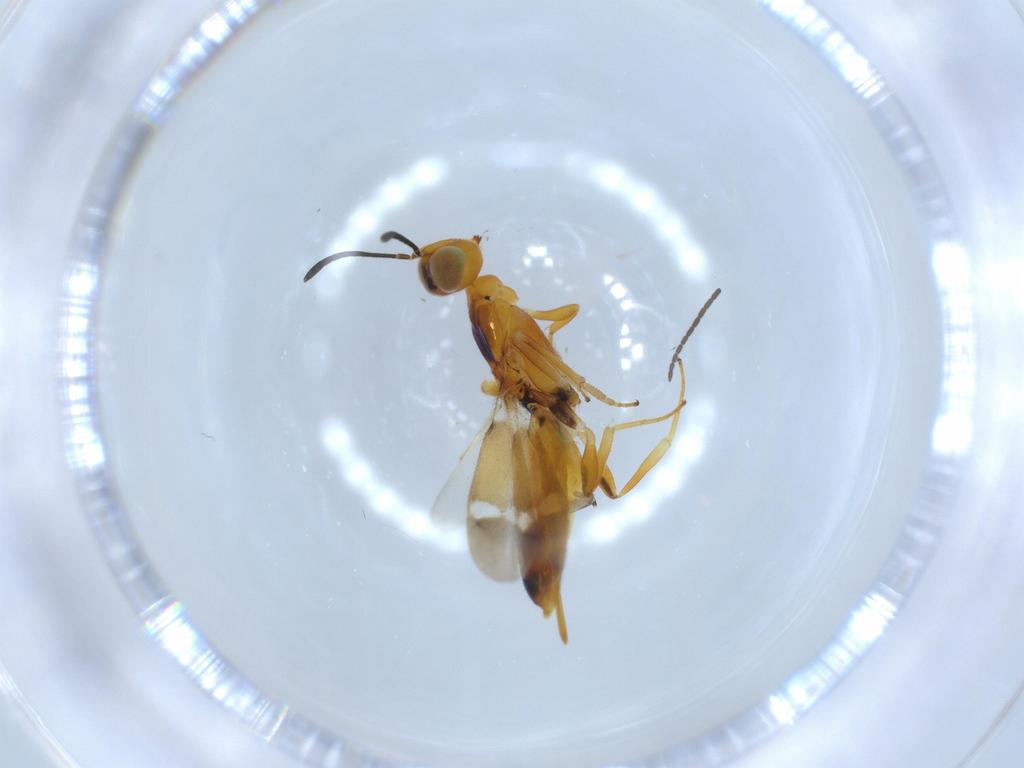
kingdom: Animalia
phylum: Arthropoda
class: Insecta
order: Hymenoptera
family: Eupelmidae
